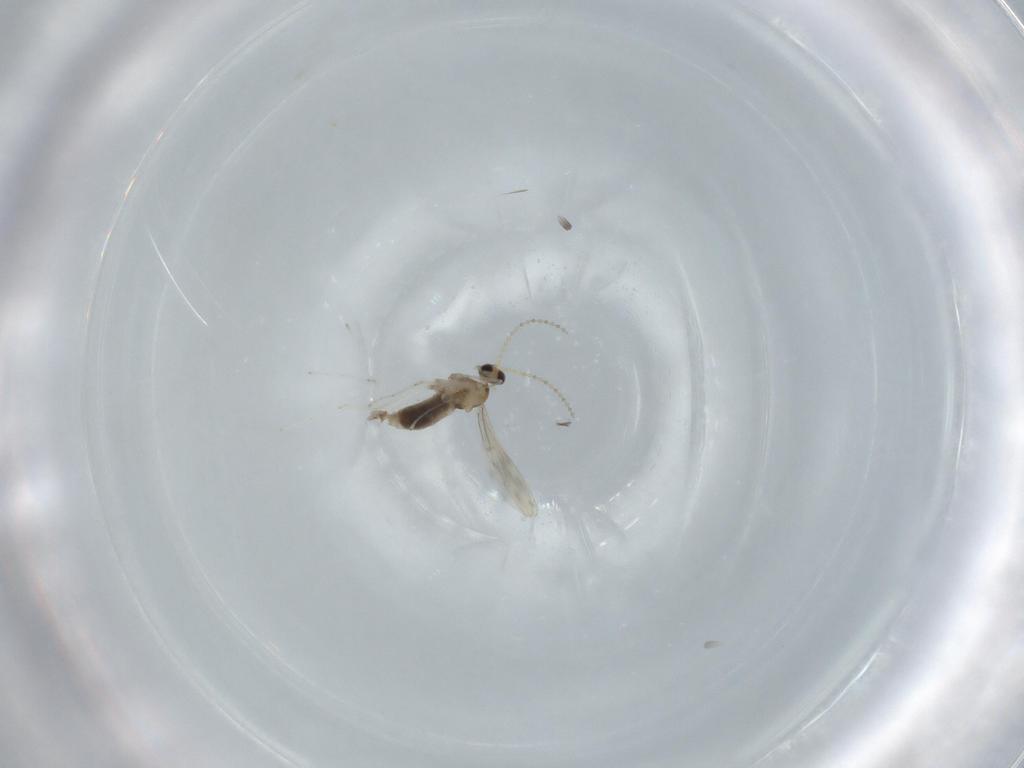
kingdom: Animalia
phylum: Arthropoda
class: Insecta
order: Diptera
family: Cecidomyiidae
